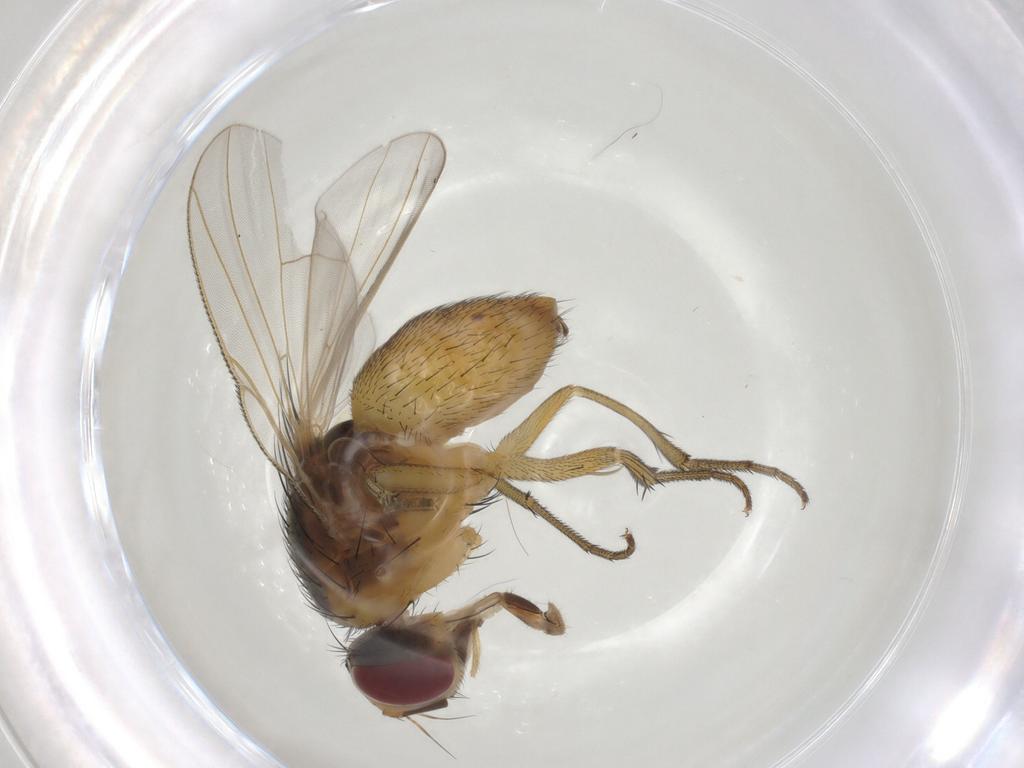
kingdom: Animalia
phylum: Arthropoda
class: Insecta
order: Diptera
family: Muscidae
